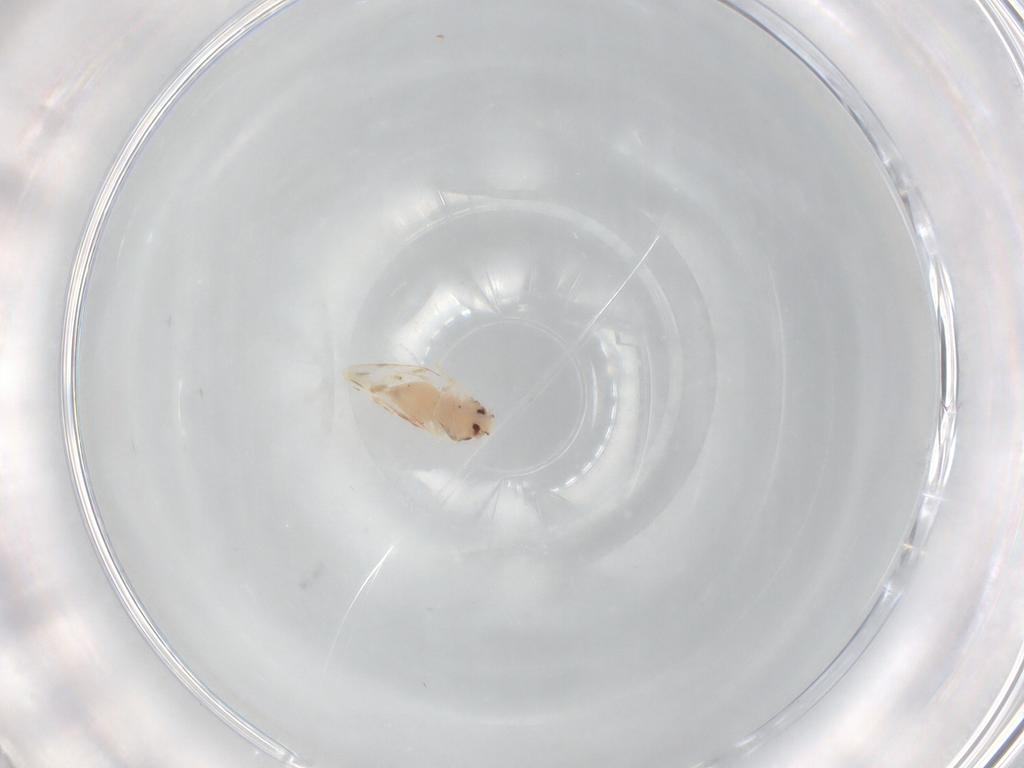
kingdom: Animalia
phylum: Arthropoda
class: Insecta
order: Hemiptera
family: Aleyrodidae
